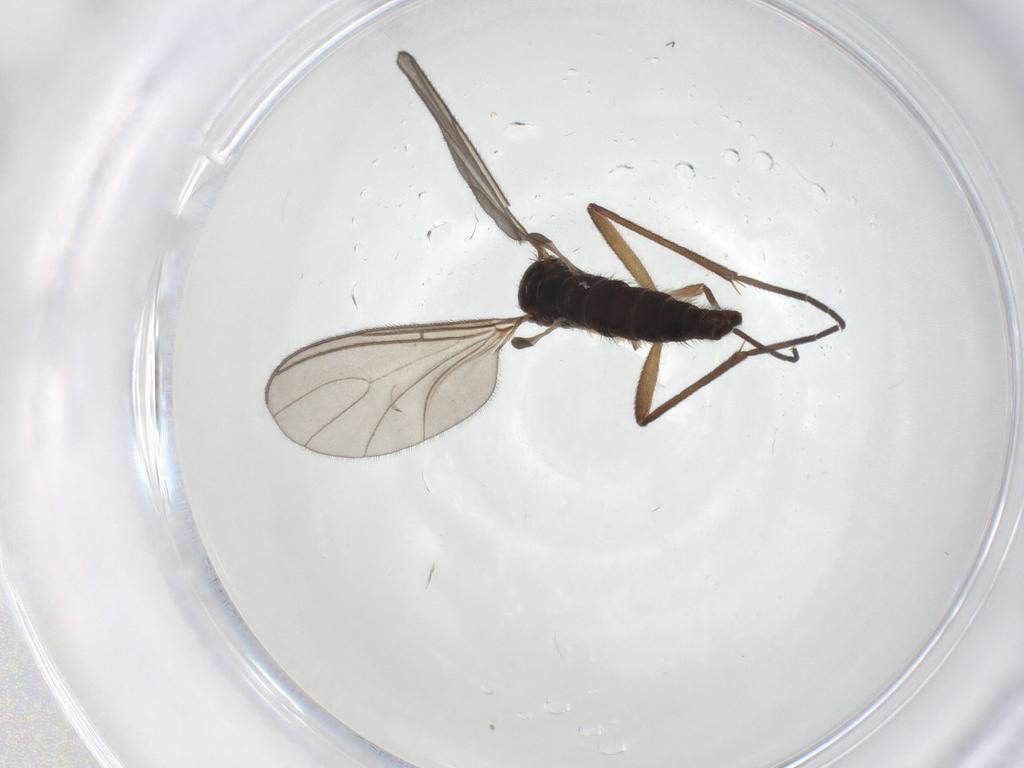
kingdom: Animalia
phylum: Arthropoda
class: Insecta
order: Diptera
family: Sciaridae
